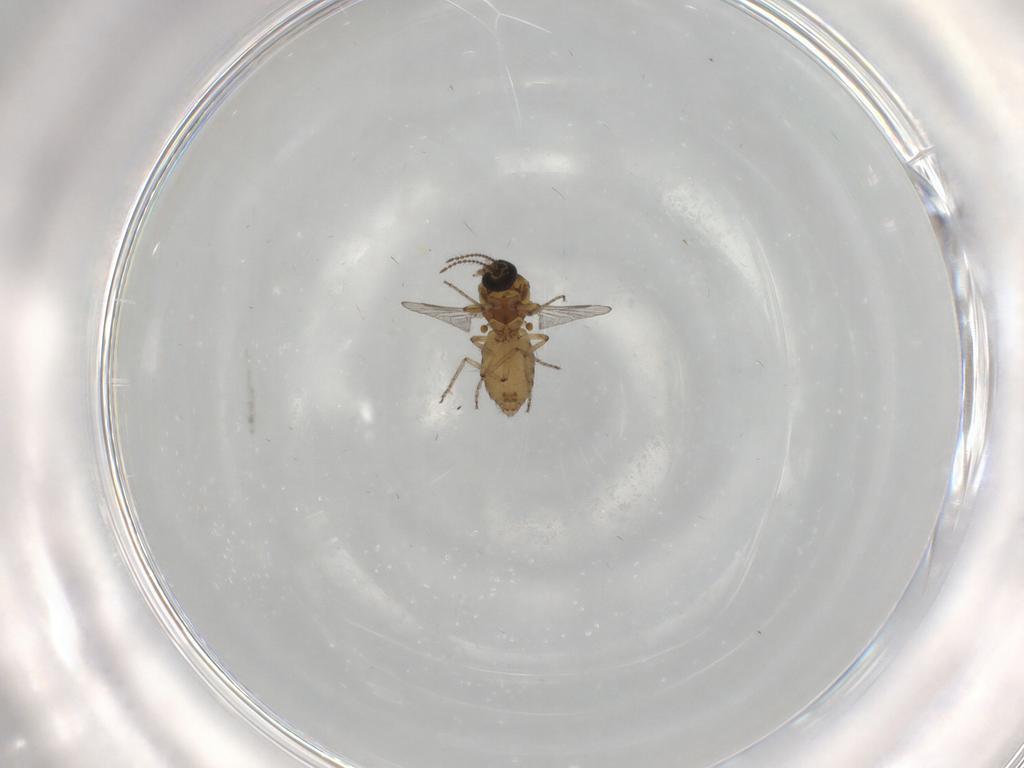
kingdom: Animalia
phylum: Arthropoda
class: Insecta
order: Diptera
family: Ceratopogonidae
